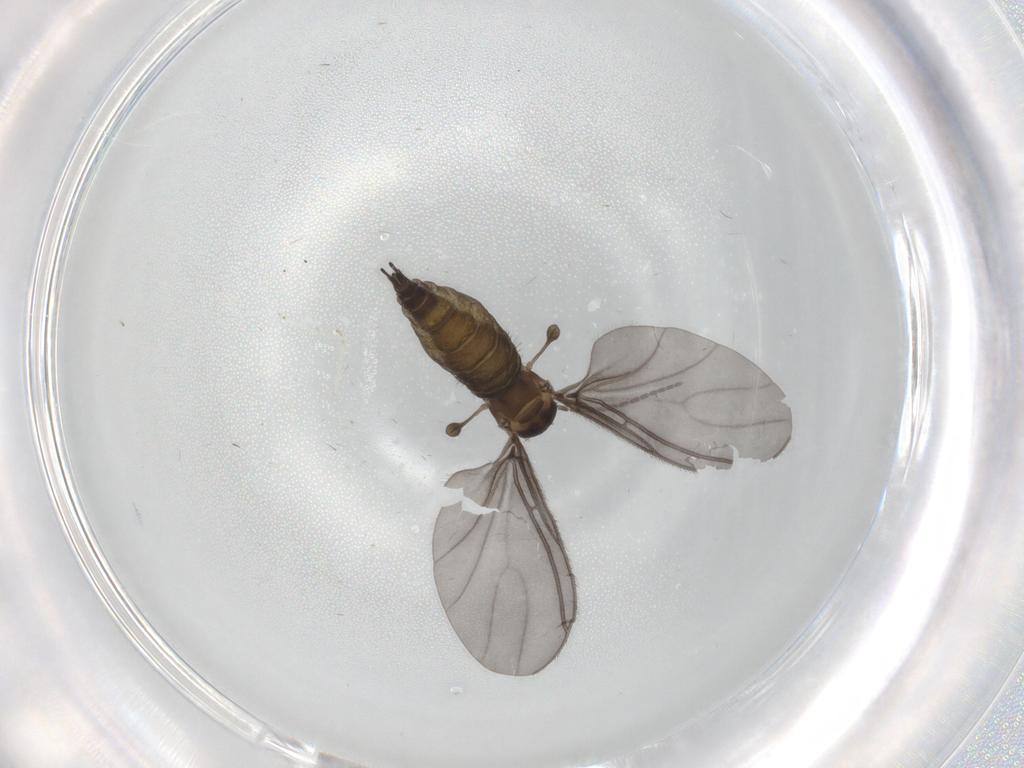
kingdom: Animalia
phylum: Arthropoda
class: Insecta
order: Diptera
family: Sciaridae
